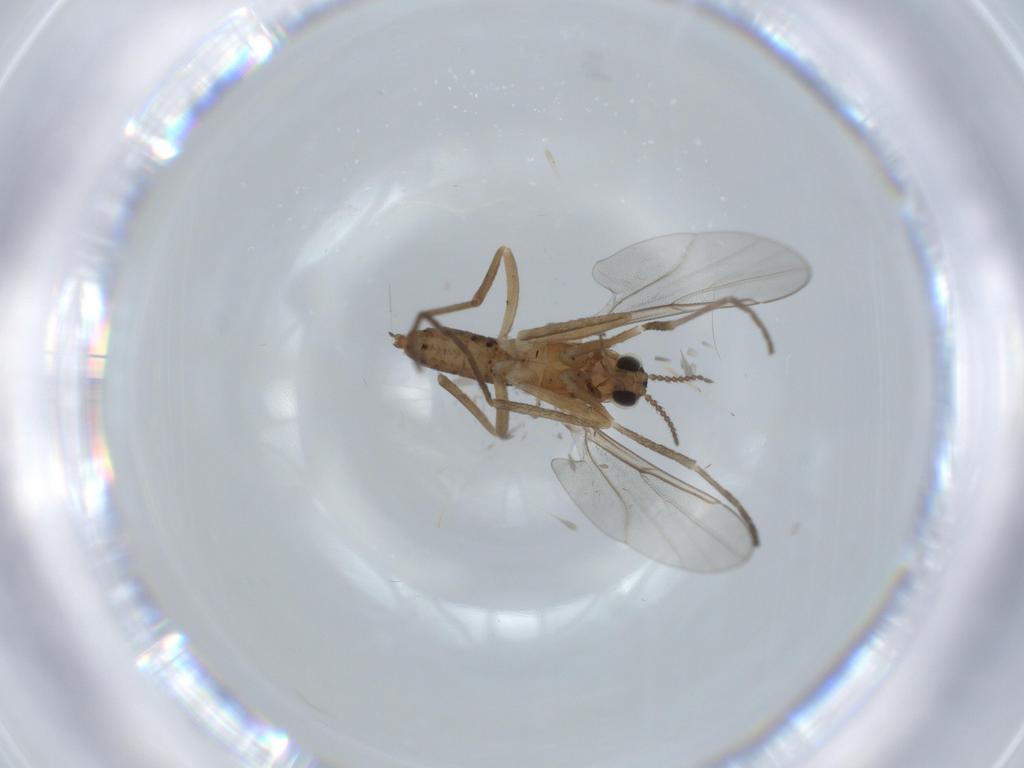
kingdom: Animalia
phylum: Arthropoda
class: Insecta
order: Diptera
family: Cecidomyiidae
